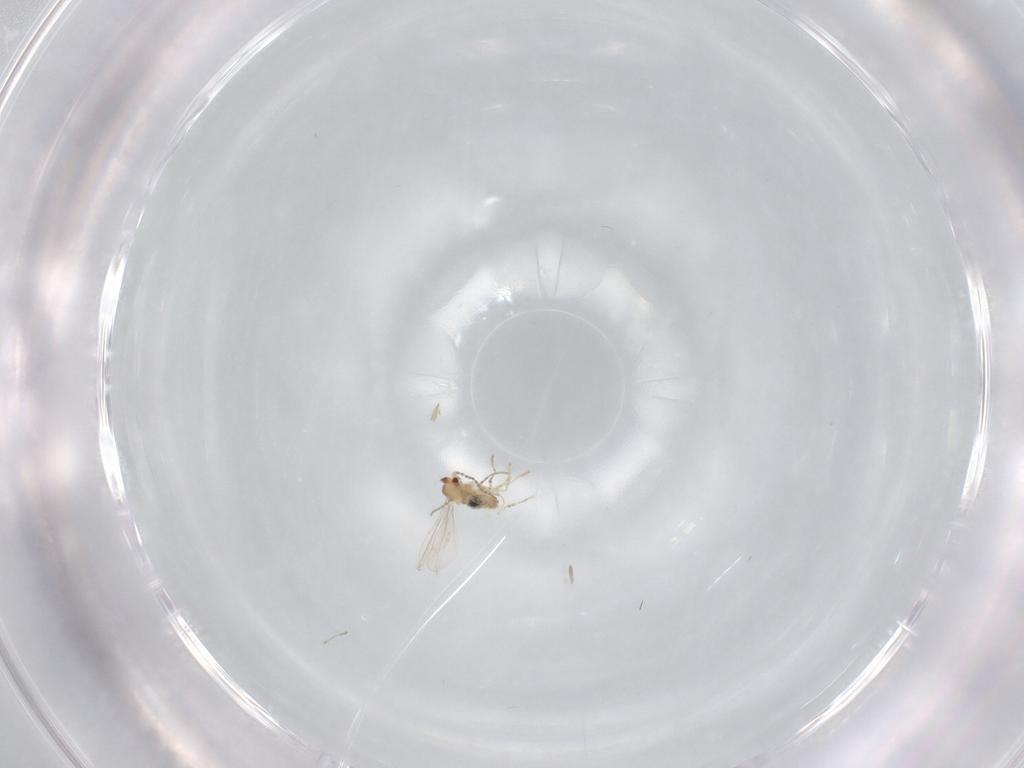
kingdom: Animalia
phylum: Arthropoda
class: Insecta
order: Diptera
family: Cecidomyiidae
